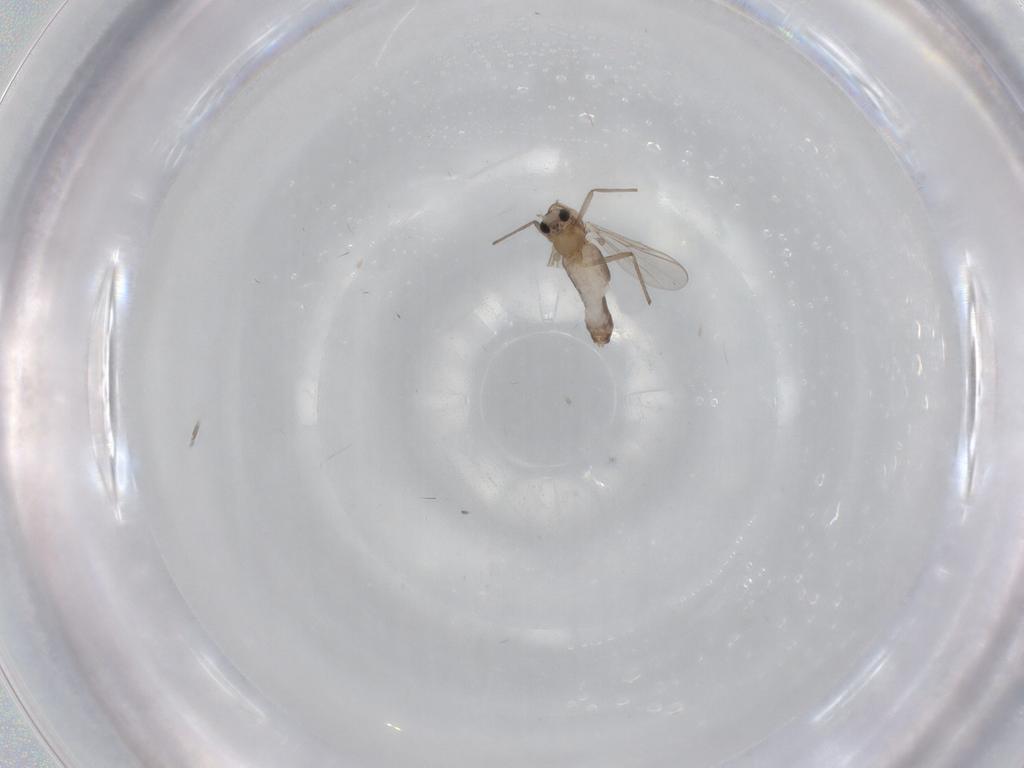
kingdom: Animalia
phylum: Arthropoda
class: Insecta
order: Diptera
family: Chironomidae
